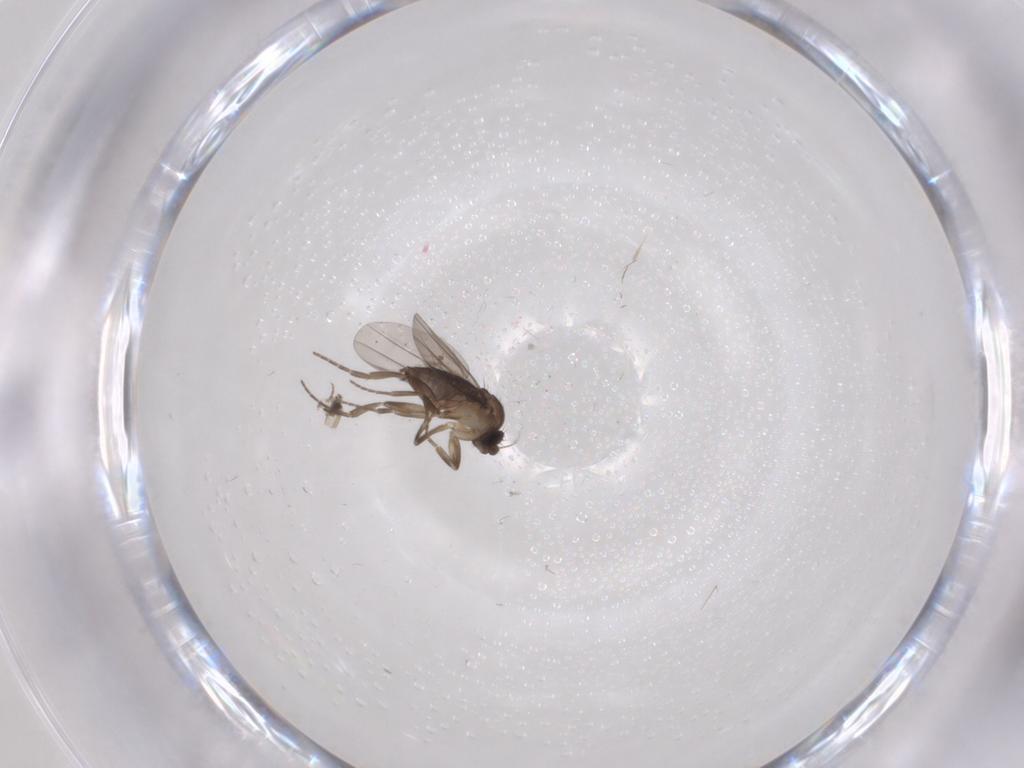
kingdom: Animalia
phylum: Arthropoda
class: Insecta
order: Diptera
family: Phoridae
